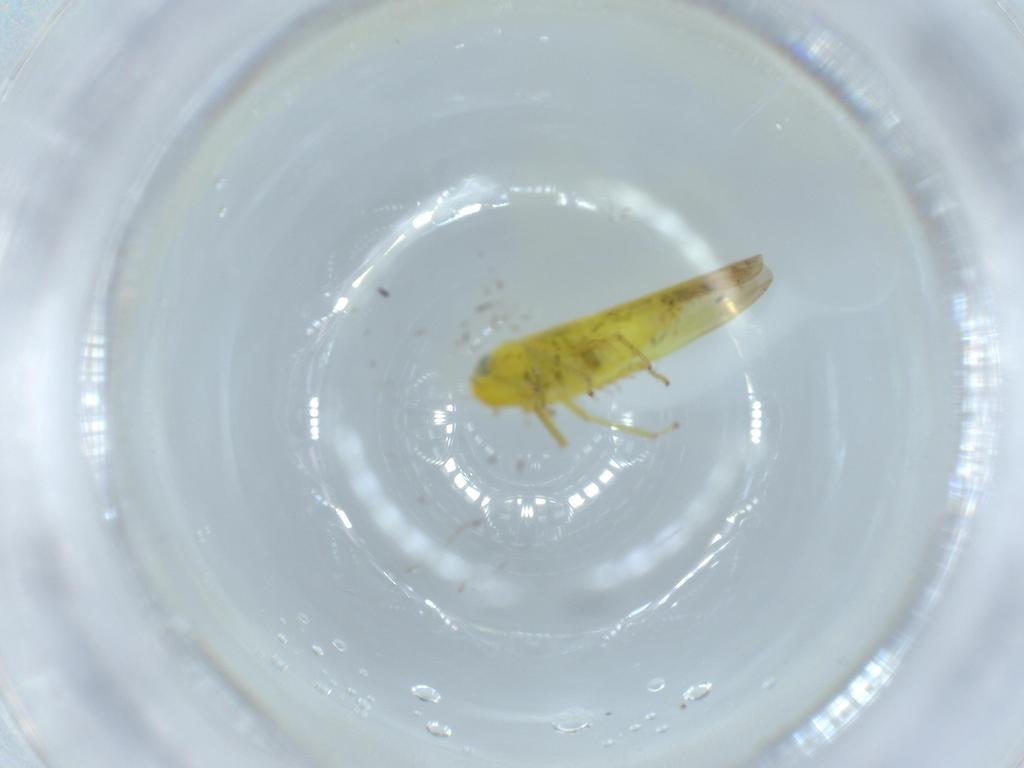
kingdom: Animalia
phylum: Arthropoda
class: Insecta
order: Hemiptera
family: Cicadellidae
